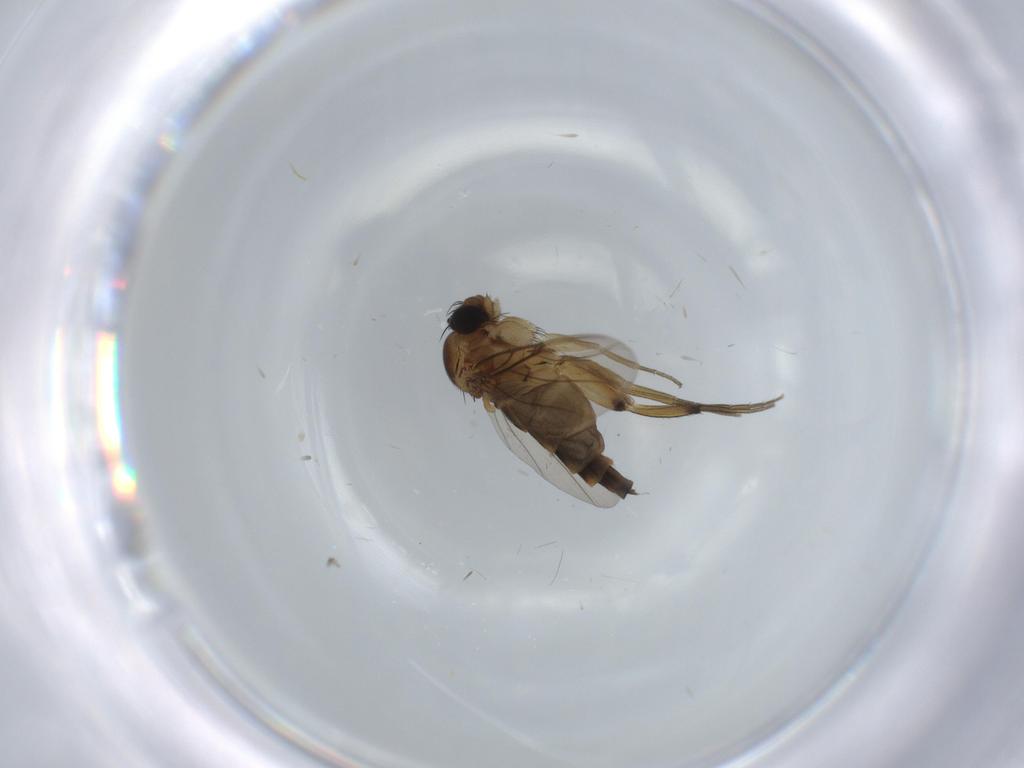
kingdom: Animalia
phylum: Arthropoda
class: Insecta
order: Diptera
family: Phoridae
